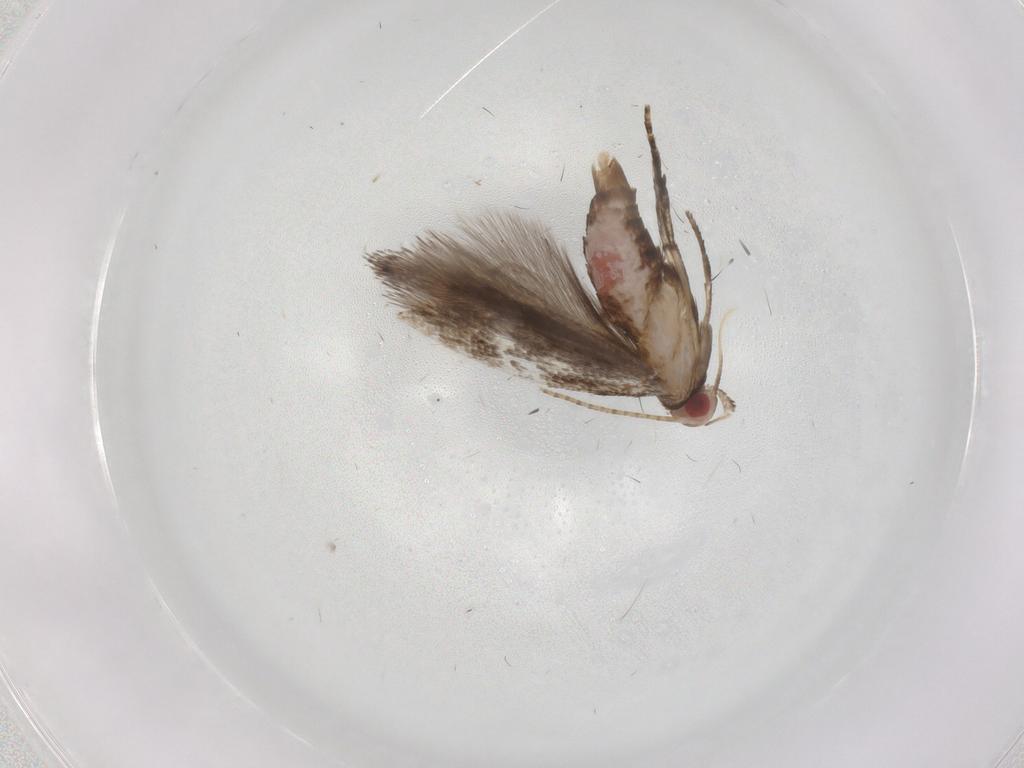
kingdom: Animalia
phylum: Arthropoda
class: Insecta
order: Lepidoptera
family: Gelechiidae
